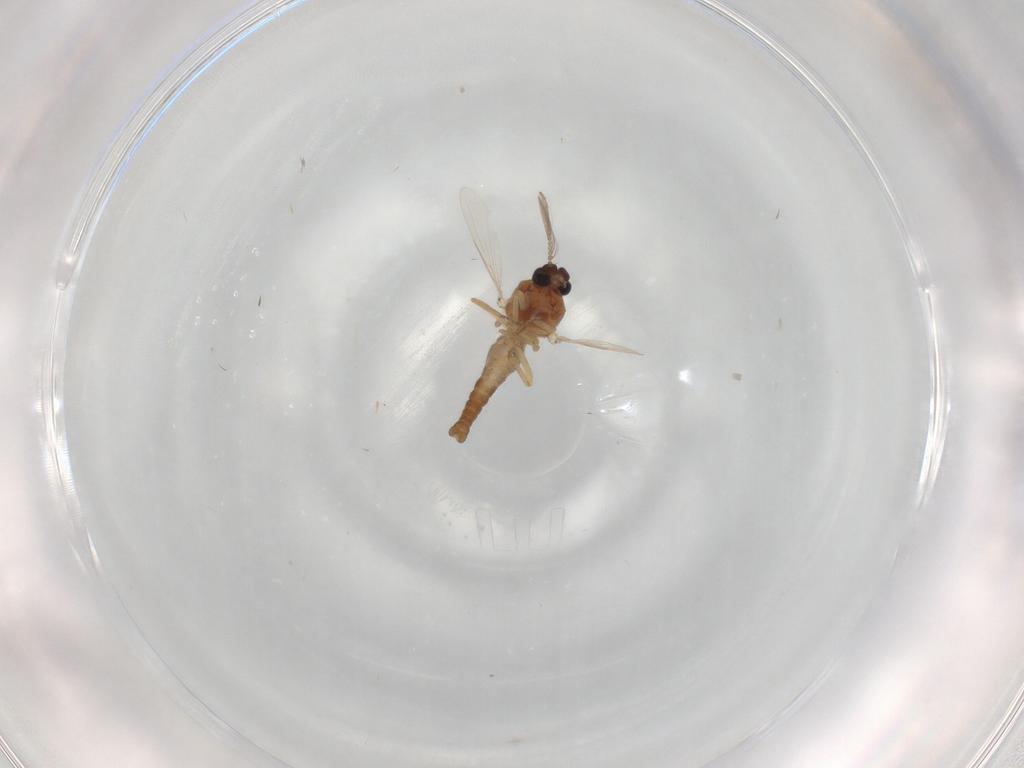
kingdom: Animalia
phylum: Arthropoda
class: Insecta
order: Diptera
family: Ceratopogonidae
